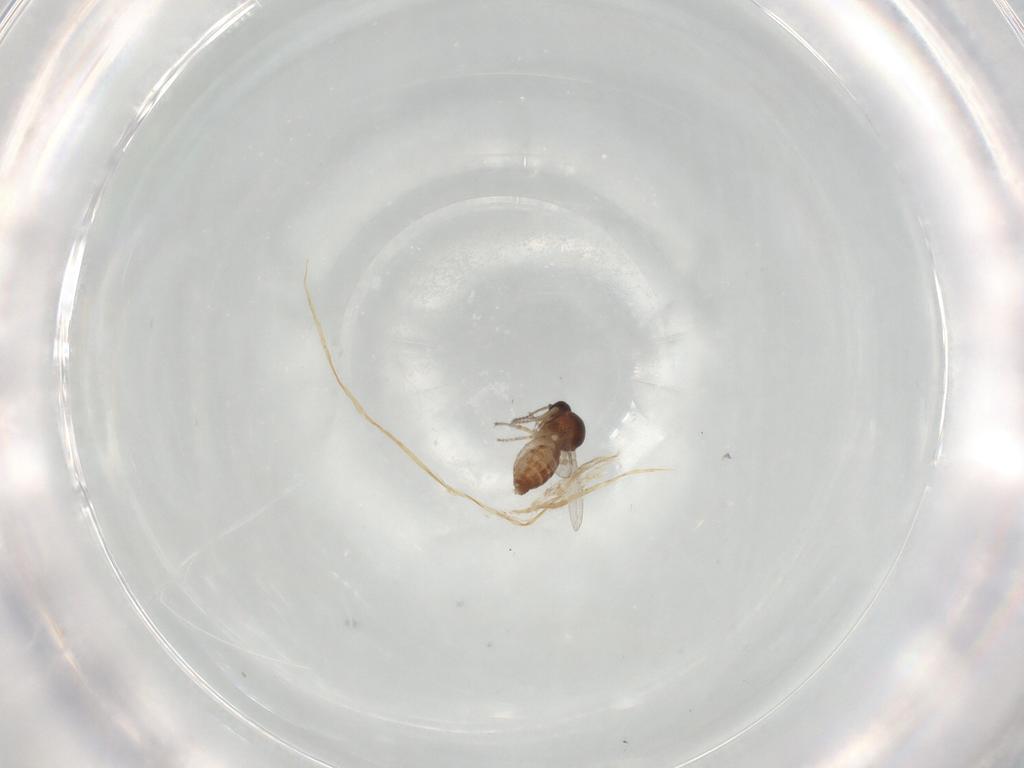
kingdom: Animalia
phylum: Arthropoda
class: Insecta
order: Diptera
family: Ceratopogonidae
